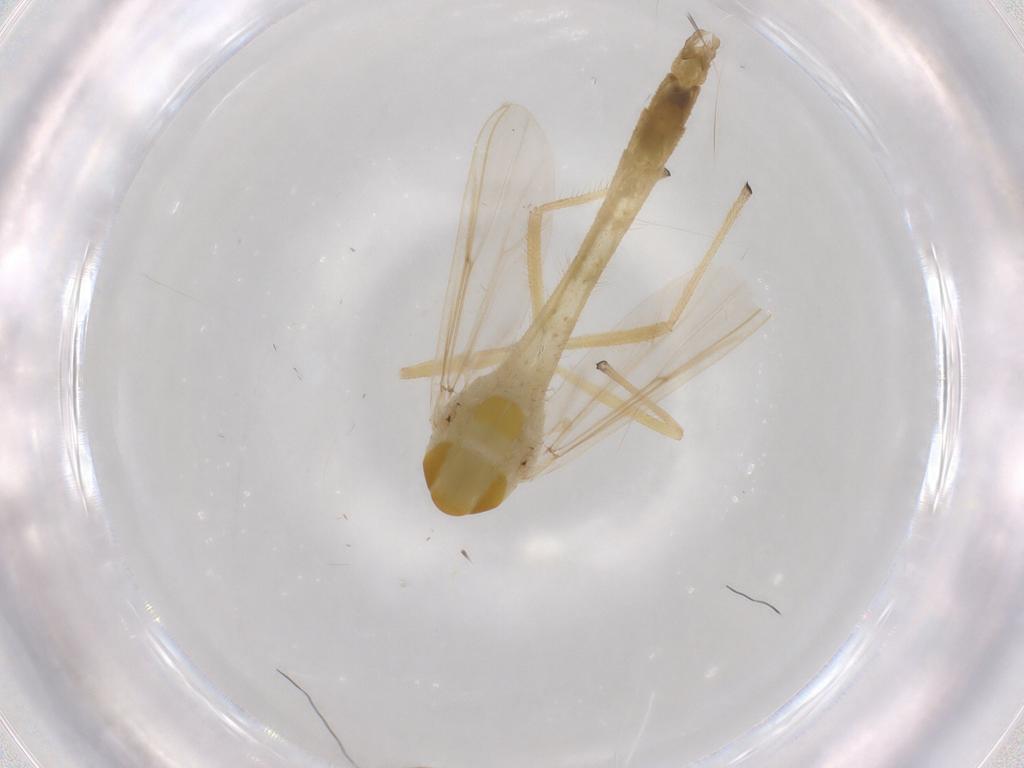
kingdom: Animalia
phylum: Arthropoda
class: Insecta
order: Diptera
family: Chironomidae
